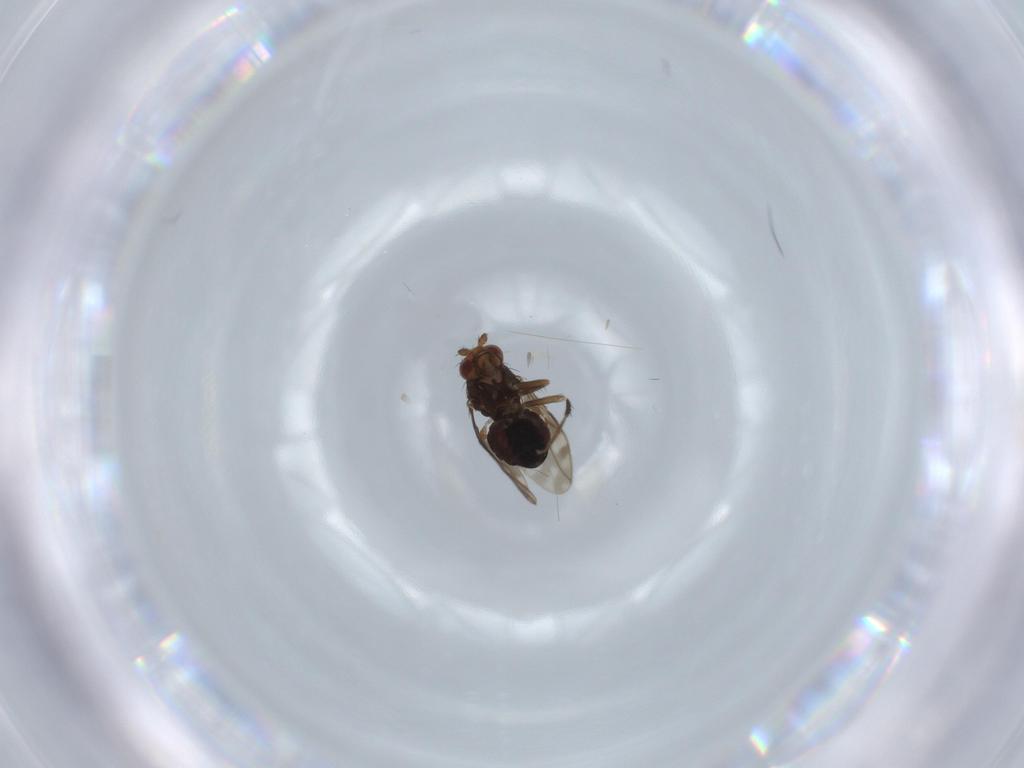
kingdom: Animalia
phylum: Arthropoda
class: Insecta
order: Diptera
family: Sphaeroceridae
